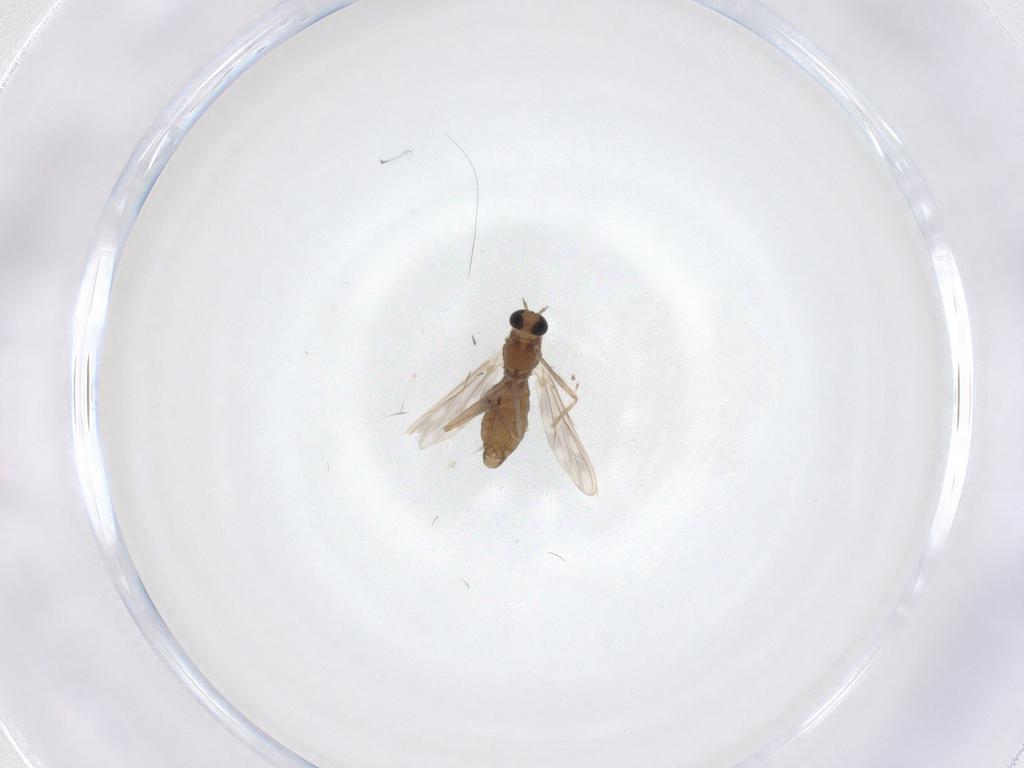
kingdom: Animalia
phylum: Arthropoda
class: Insecta
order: Diptera
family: Chironomidae
